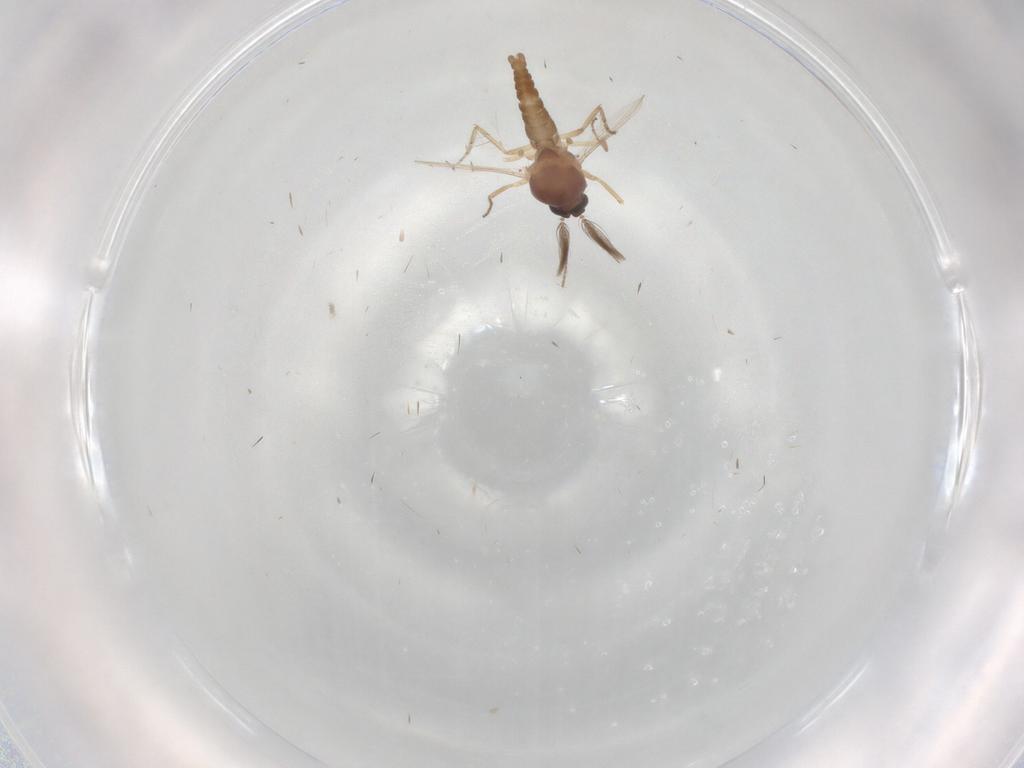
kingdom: Animalia
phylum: Arthropoda
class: Insecta
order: Diptera
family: Ceratopogonidae
